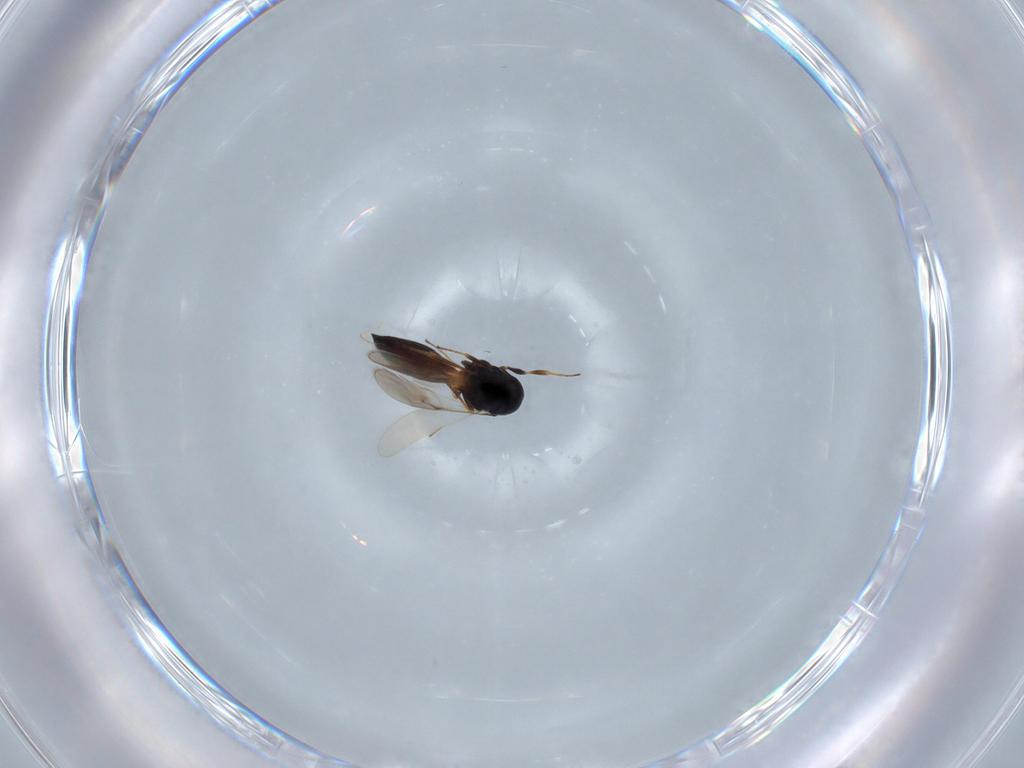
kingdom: Animalia
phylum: Arthropoda
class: Insecta
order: Hymenoptera
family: Scelionidae
